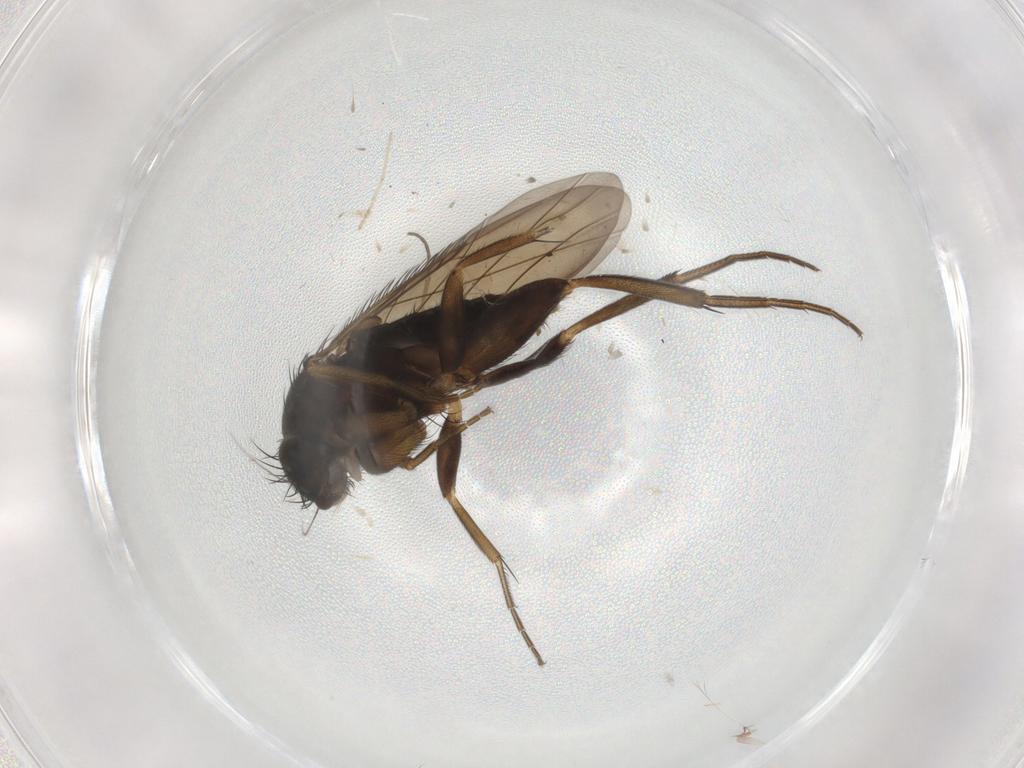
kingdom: Animalia
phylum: Arthropoda
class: Insecta
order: Diptera
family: Phoridae
